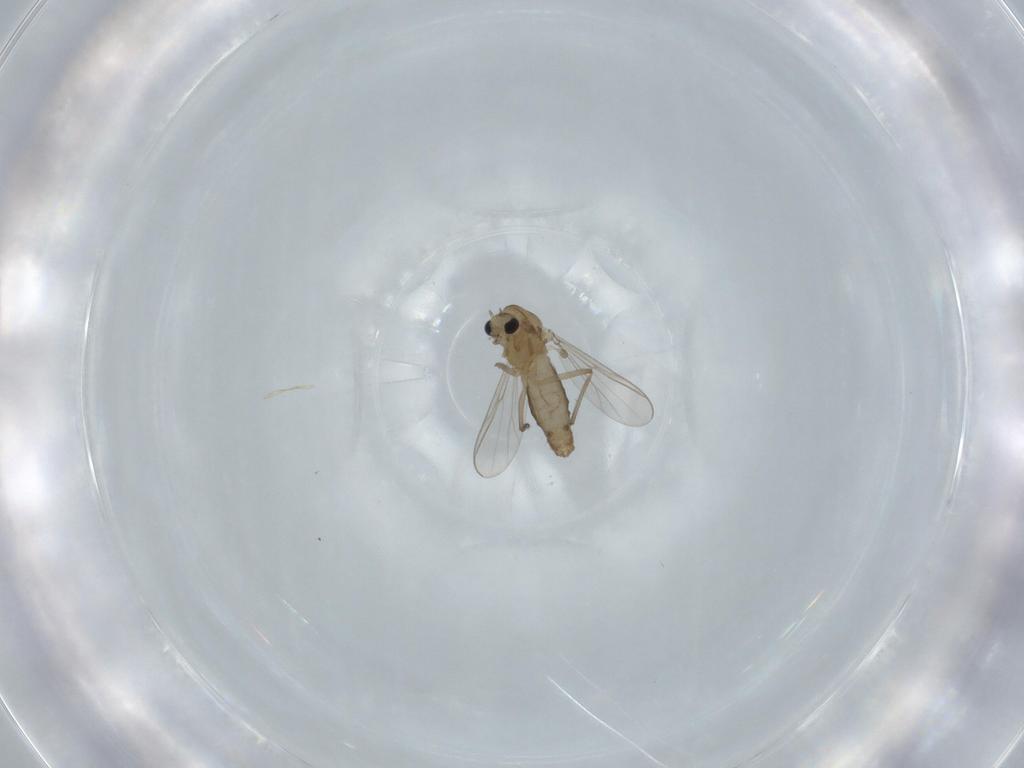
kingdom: Animalia
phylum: Arthropoda
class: Insecta
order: Diptera
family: Chironomidae
